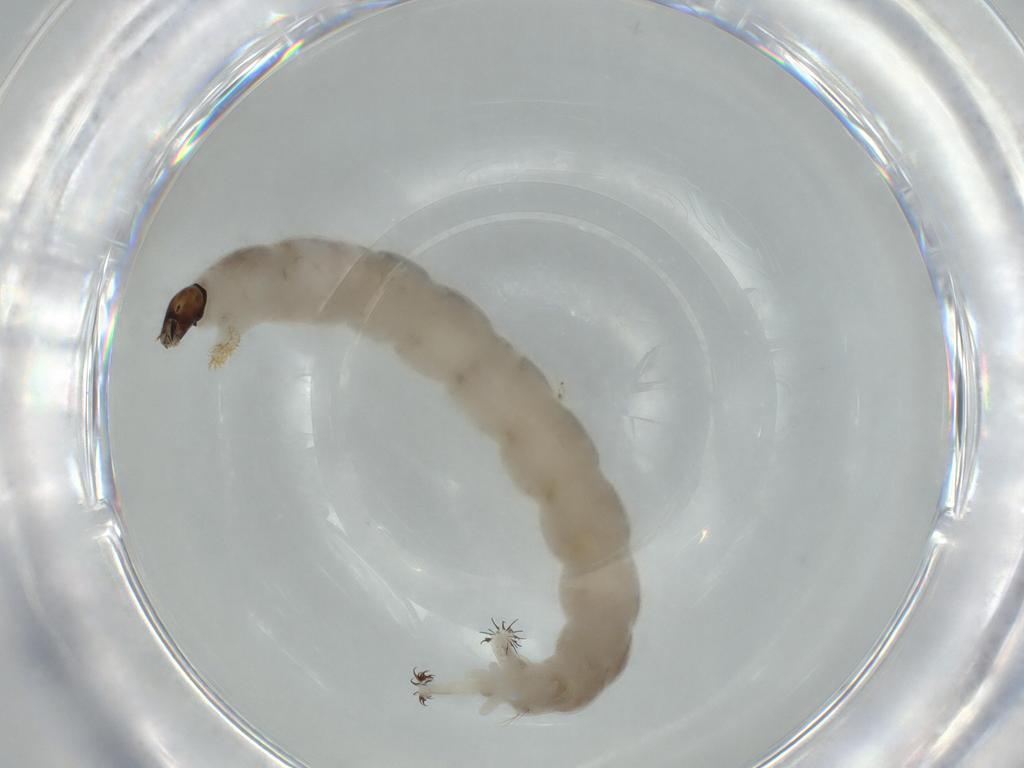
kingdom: Animalia
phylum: Arthropoda
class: Insecta
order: Diptera
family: Chironomidae
